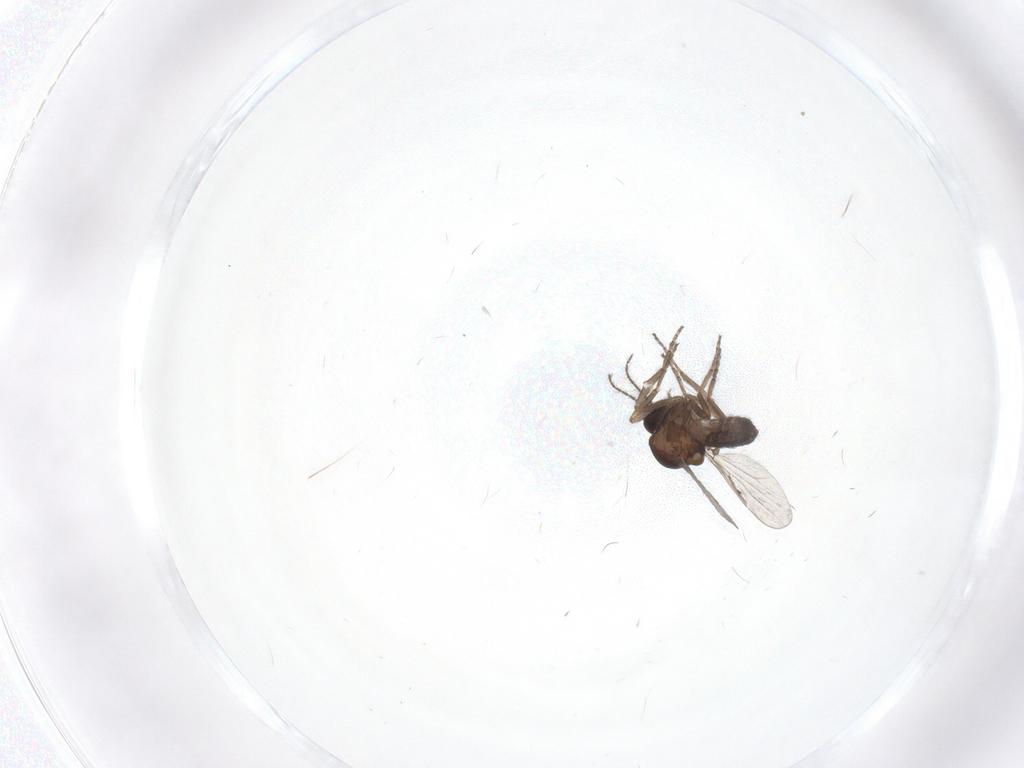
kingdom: Animalia
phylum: Arthropoda
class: Insecta
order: Diptera
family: Ceratopogonidae
